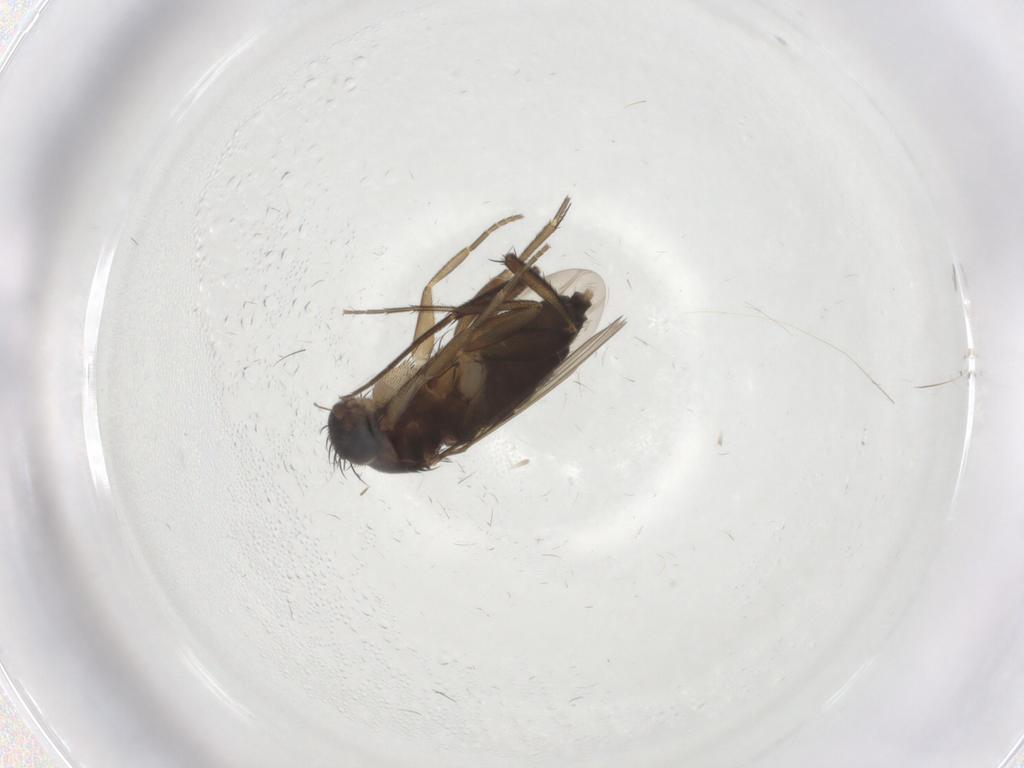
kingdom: Animalia
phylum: Arthropoda
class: Insecta
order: Diptera
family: Phoridae
